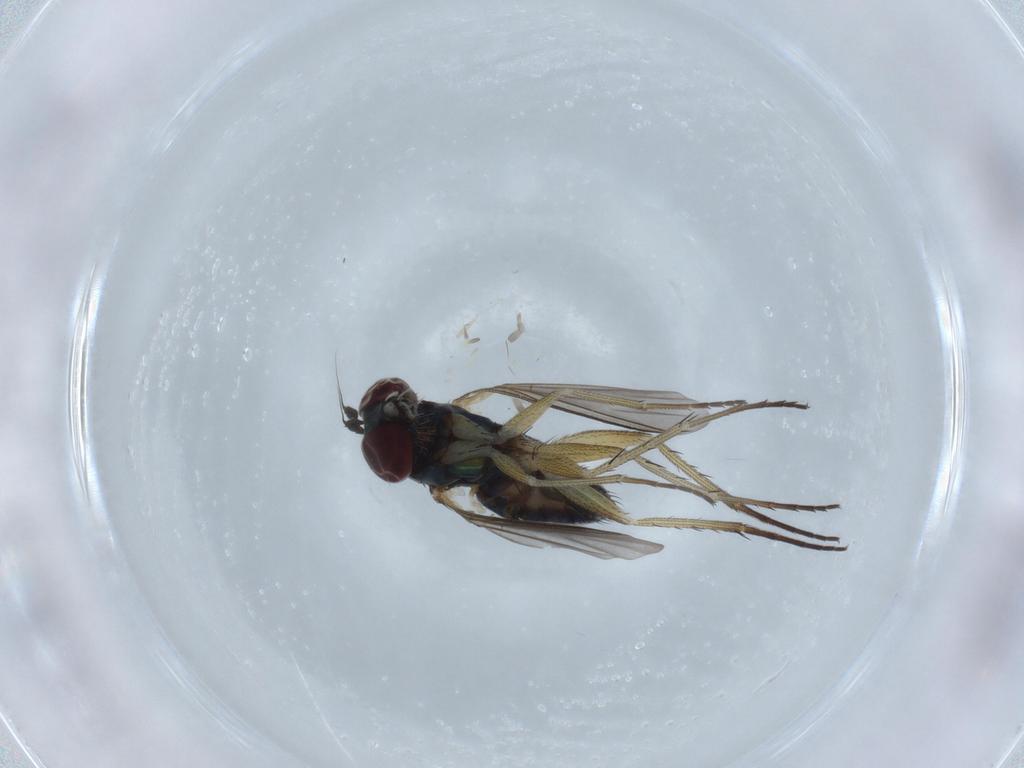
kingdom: Animalia
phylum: Arthropoda
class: Insecta
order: Diptera
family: Dolichopodidae
